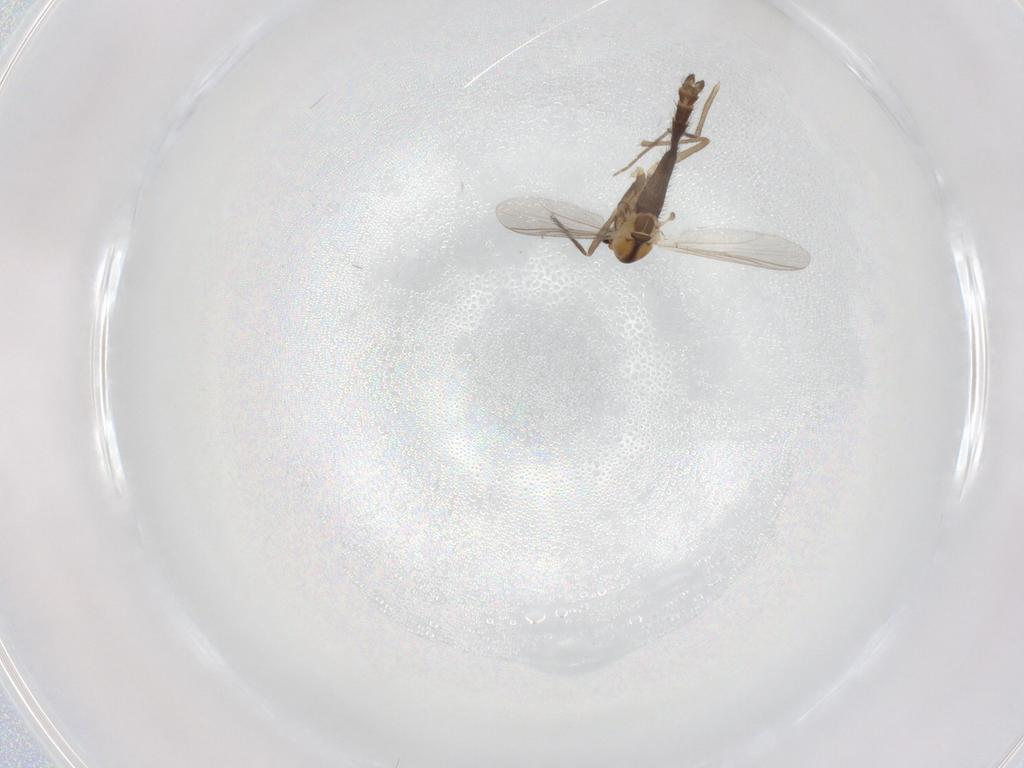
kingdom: Animalia
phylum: Arthropoda
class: Insecta
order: Diptera
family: Chironomidae
